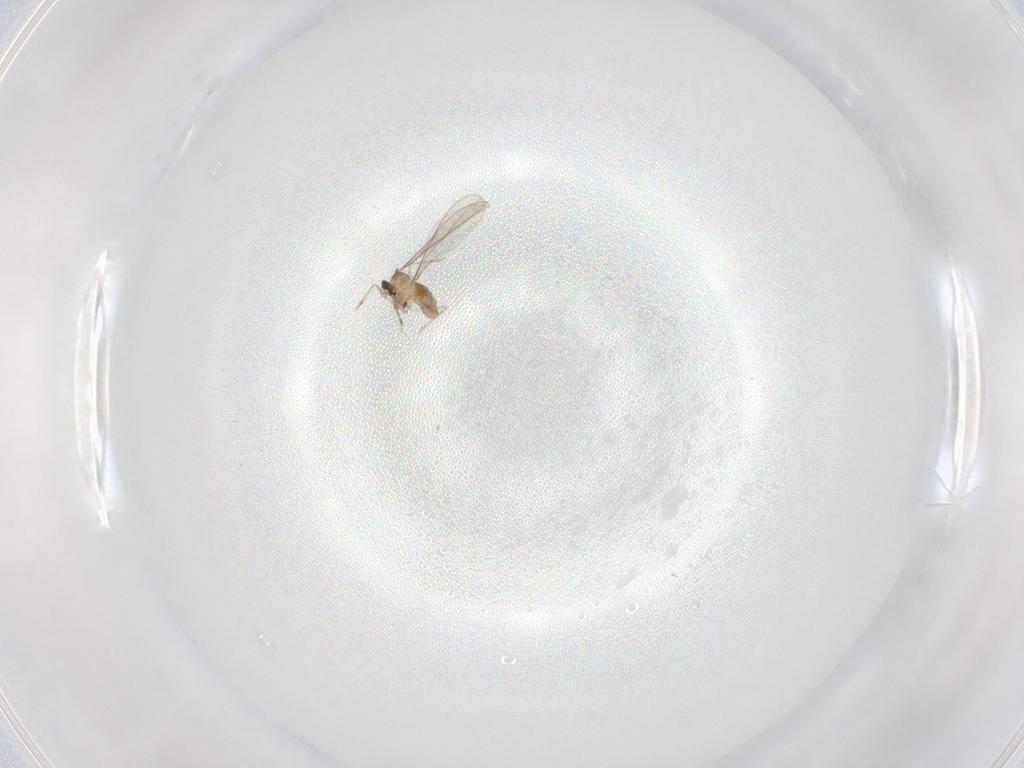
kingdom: Animalia
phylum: Arthropoda
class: Insecta
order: Diptera
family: Cecidomyiidae
